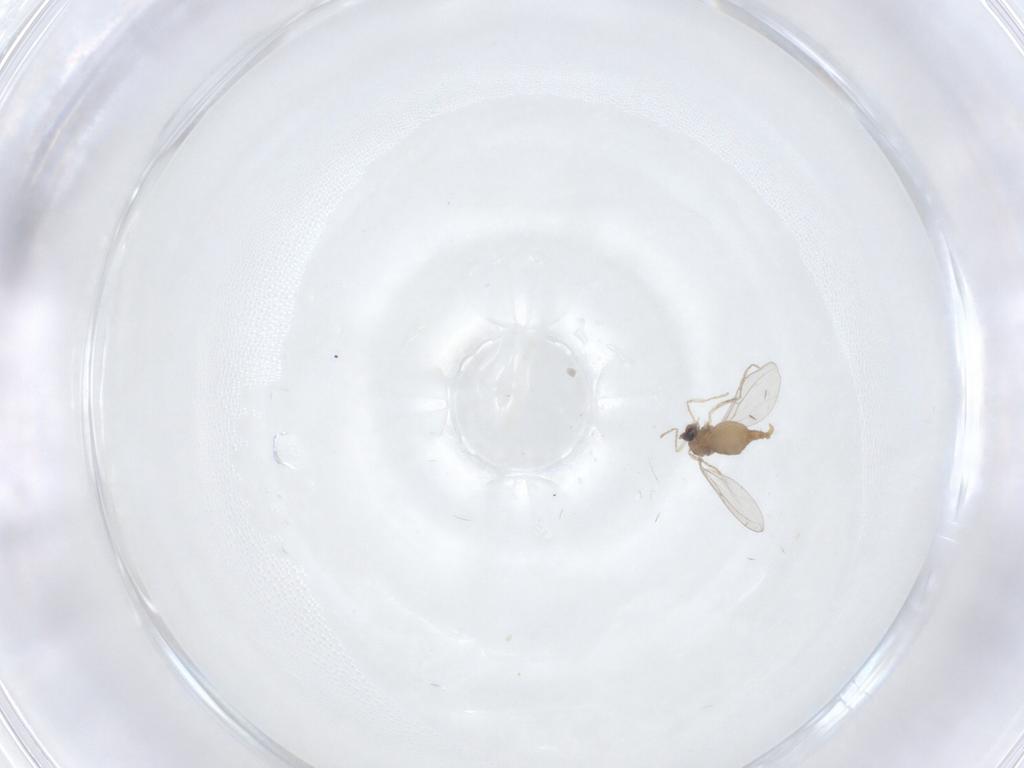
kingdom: Animalia
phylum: Arthropoda
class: Insecta
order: Diptera
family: Cecidomyiidae
